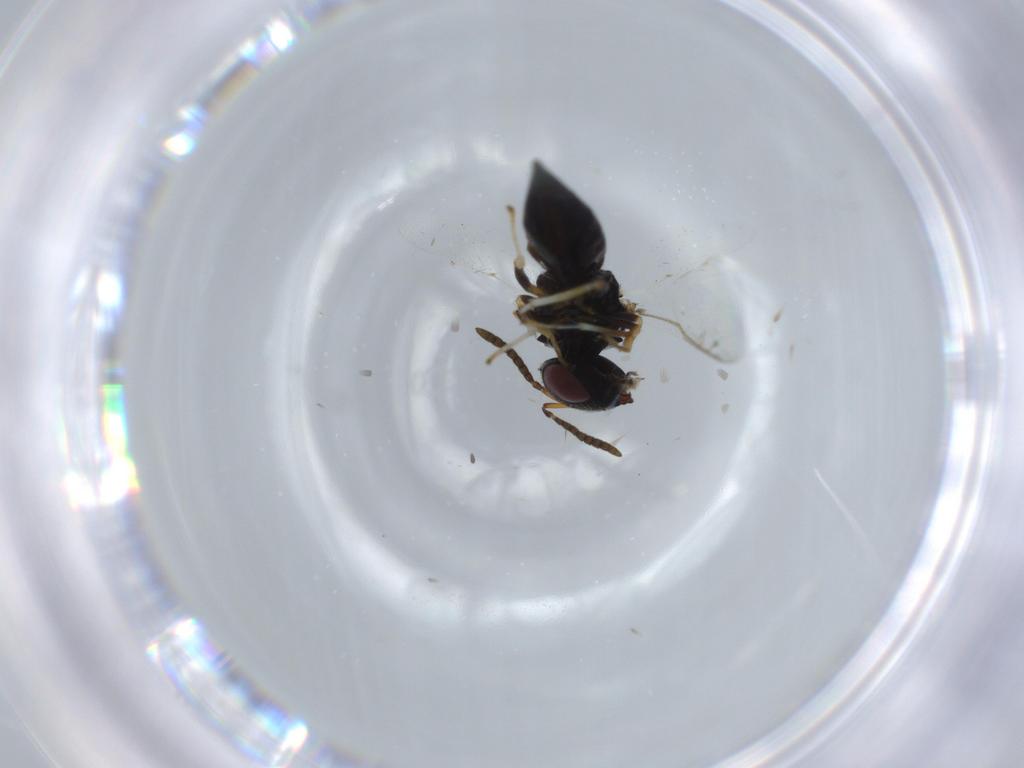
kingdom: Animalia
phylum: Arthropoda
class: Insecta
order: Hymenoptera
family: Pteromalidae
